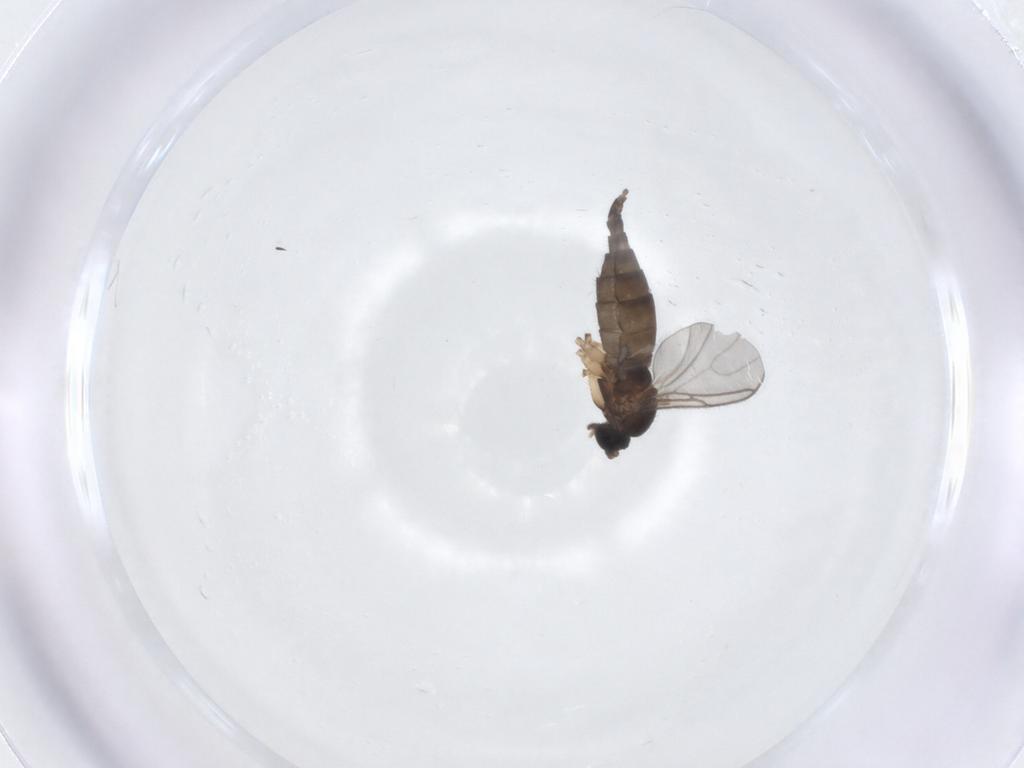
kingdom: Animalia
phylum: Arthropoda
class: Insecta
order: Diptera
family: Sciaridae
